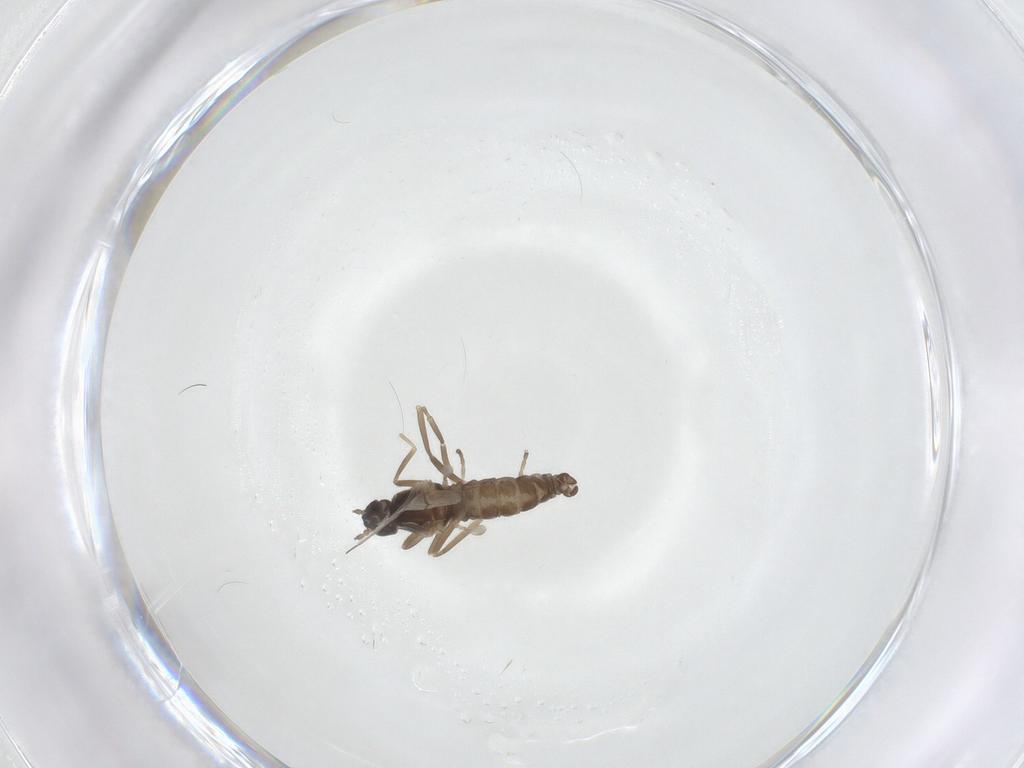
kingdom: Animalia
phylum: Arthropoda
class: Insecta
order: Diptera
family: Cecidomyiidae
